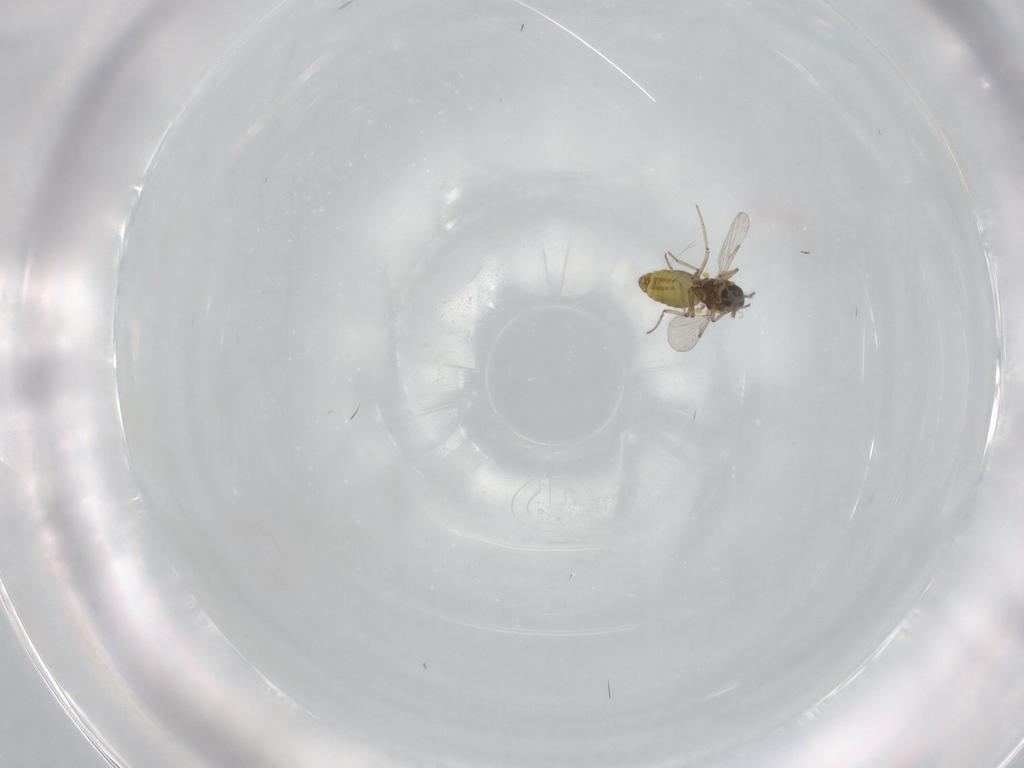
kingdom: Animalia
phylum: Arthropoda
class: Insecta
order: Diptera
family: Ceratopogonidae
